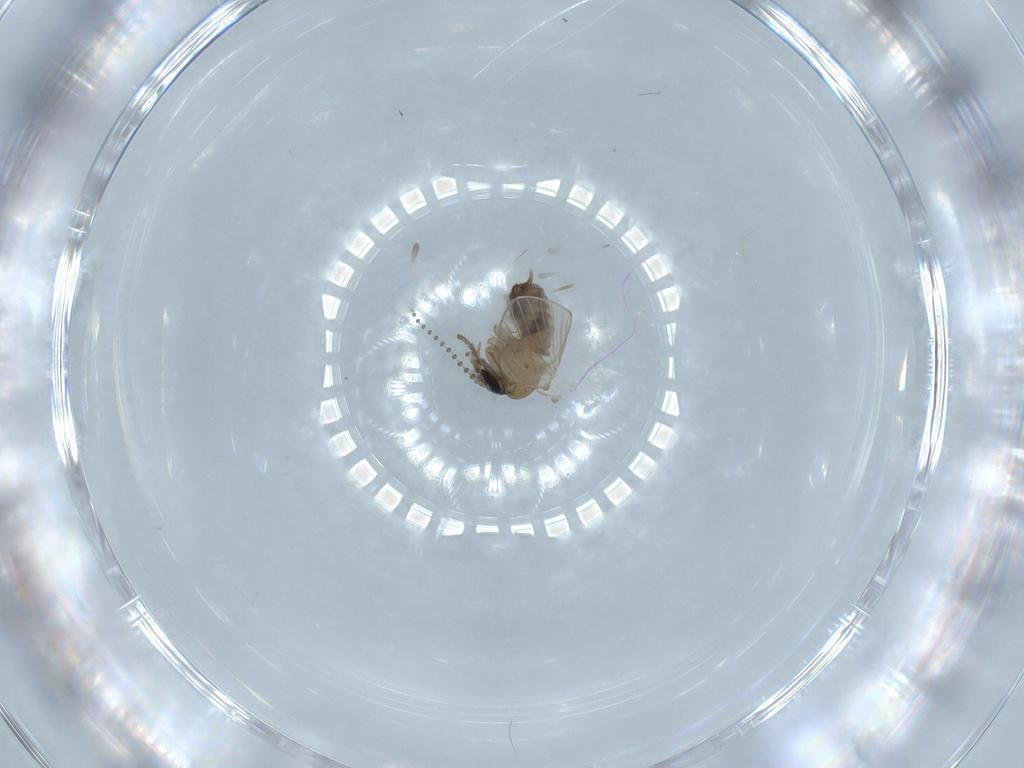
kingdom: Animalia
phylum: Arthropoda
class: Insecta
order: Diptera
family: Psychodidae
